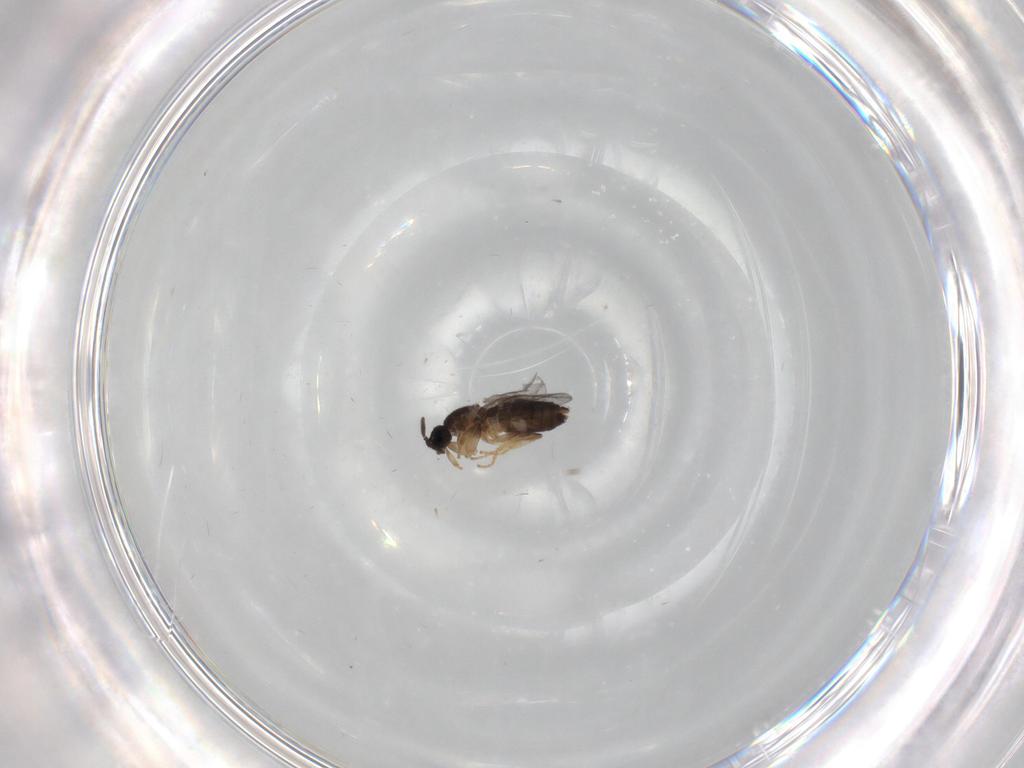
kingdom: Animalia
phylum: Arthropoda
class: Insecta
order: Diptera
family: Scatopsidae
